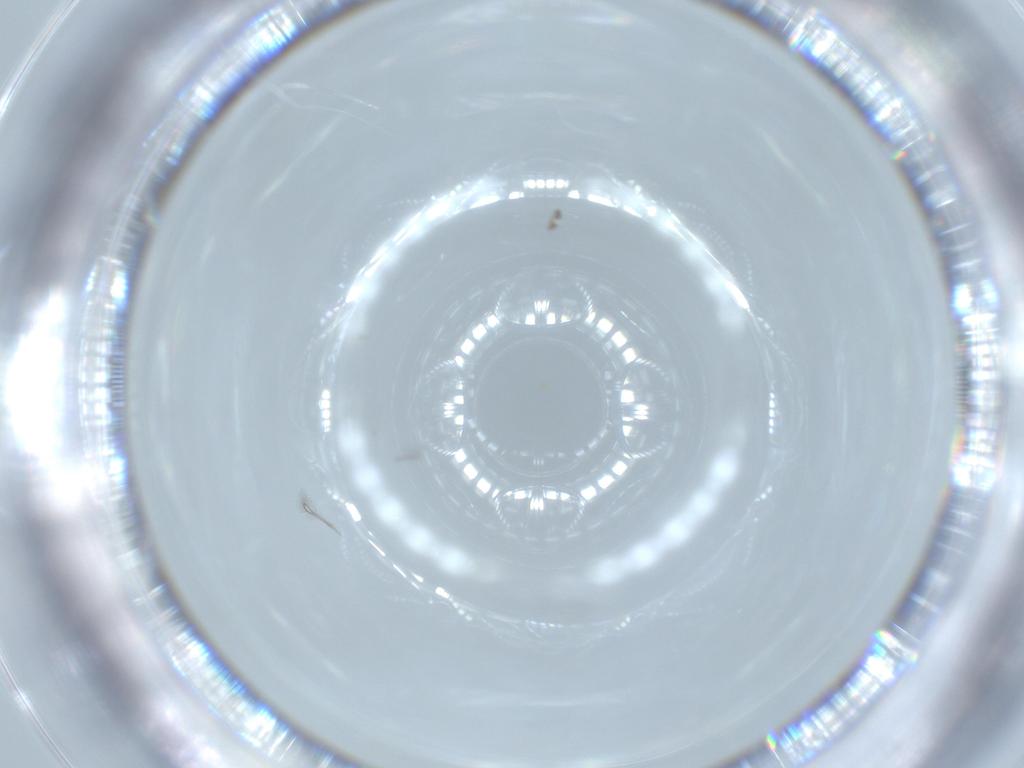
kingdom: Animalia
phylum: Arthropoda
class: Insecta
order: Hymenoptera
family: Mymaridae
